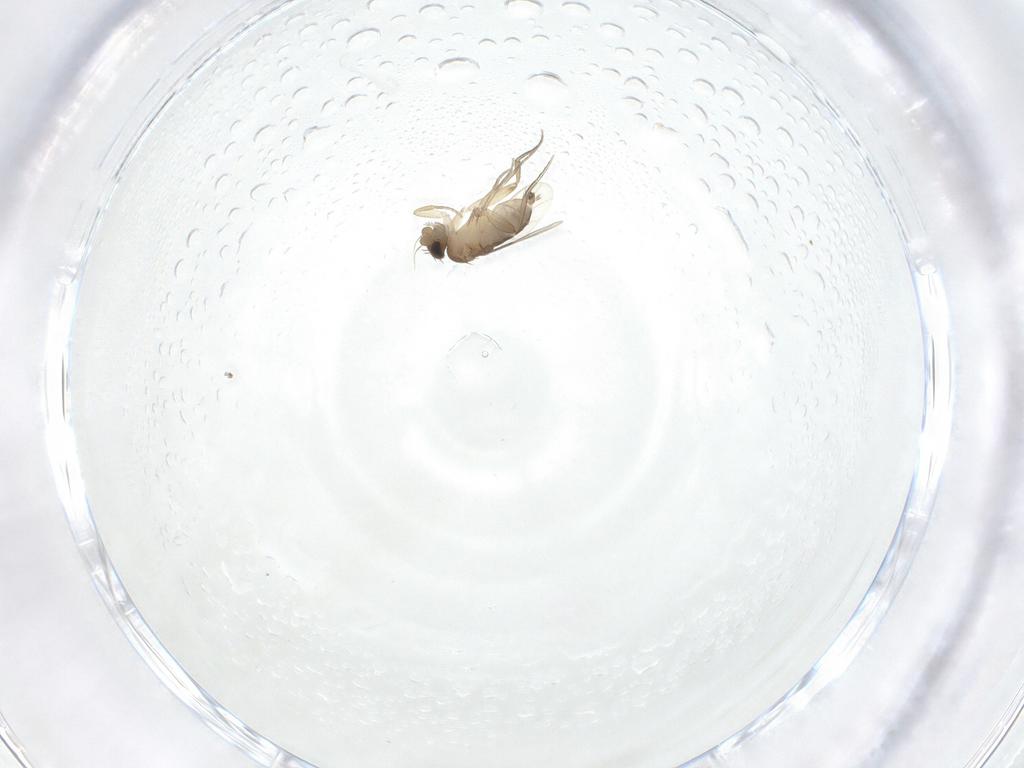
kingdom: Animalia
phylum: Arthropoda
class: Insecta
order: Diptera
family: Phoridae
